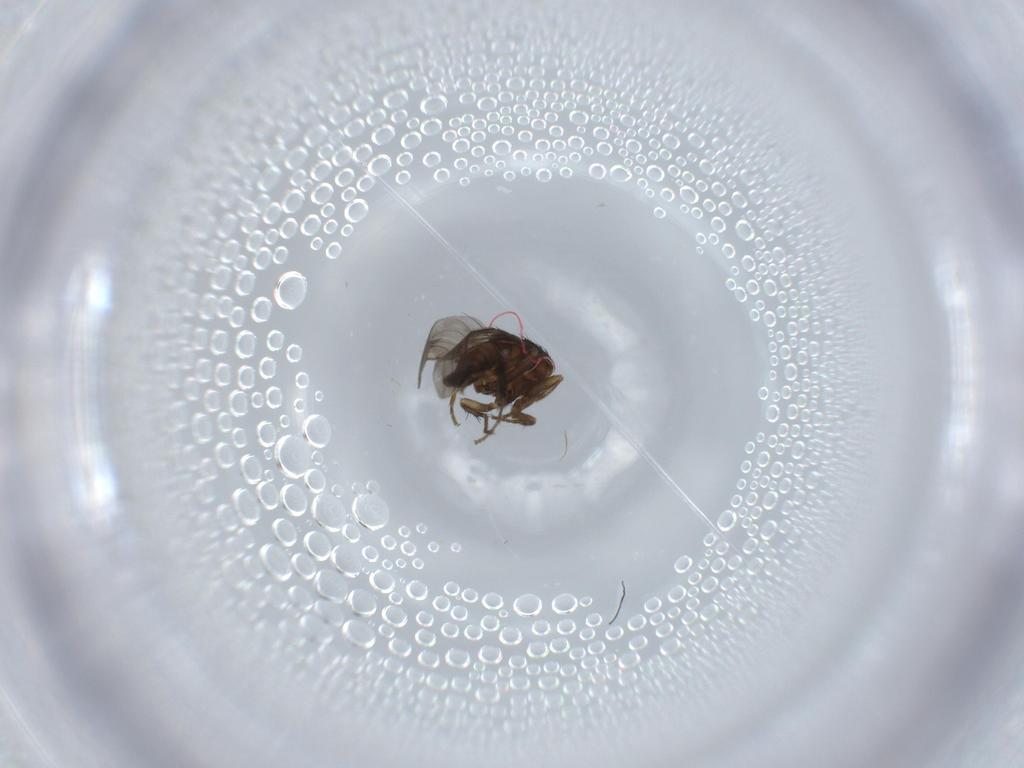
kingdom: Animalia
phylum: Arthropoda
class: Insecta
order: Diptera
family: Sphaeroceridae
